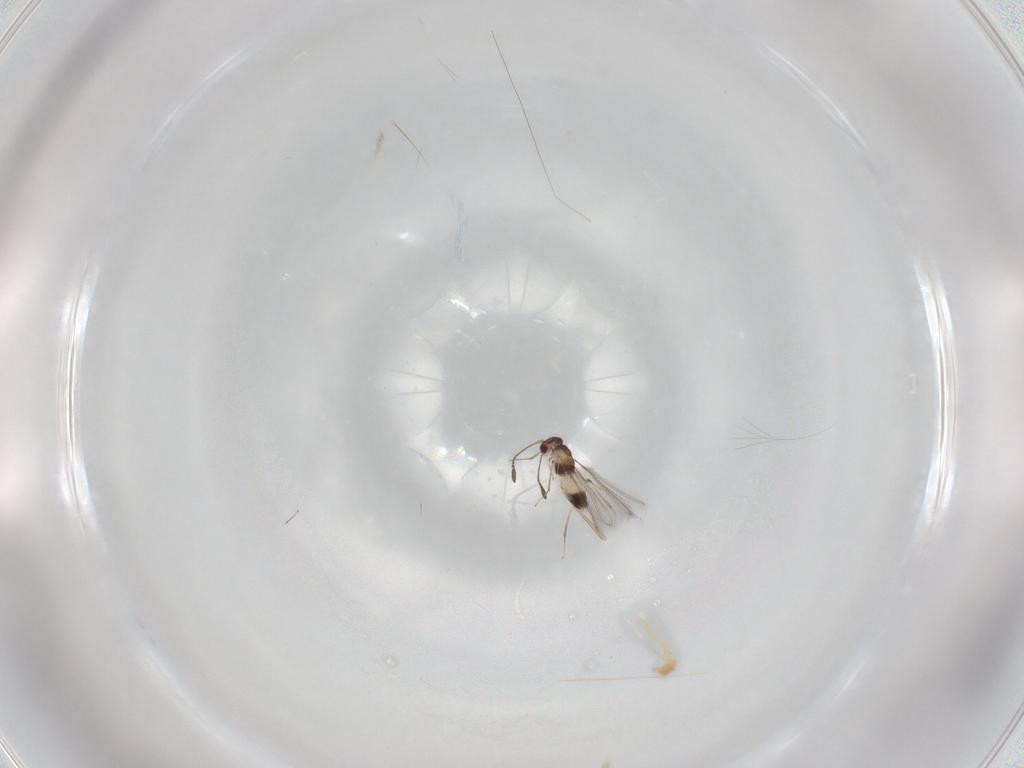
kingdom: Animalia
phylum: Arthropoda
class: Insecta
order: Hymenoptera
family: Mymaridae
